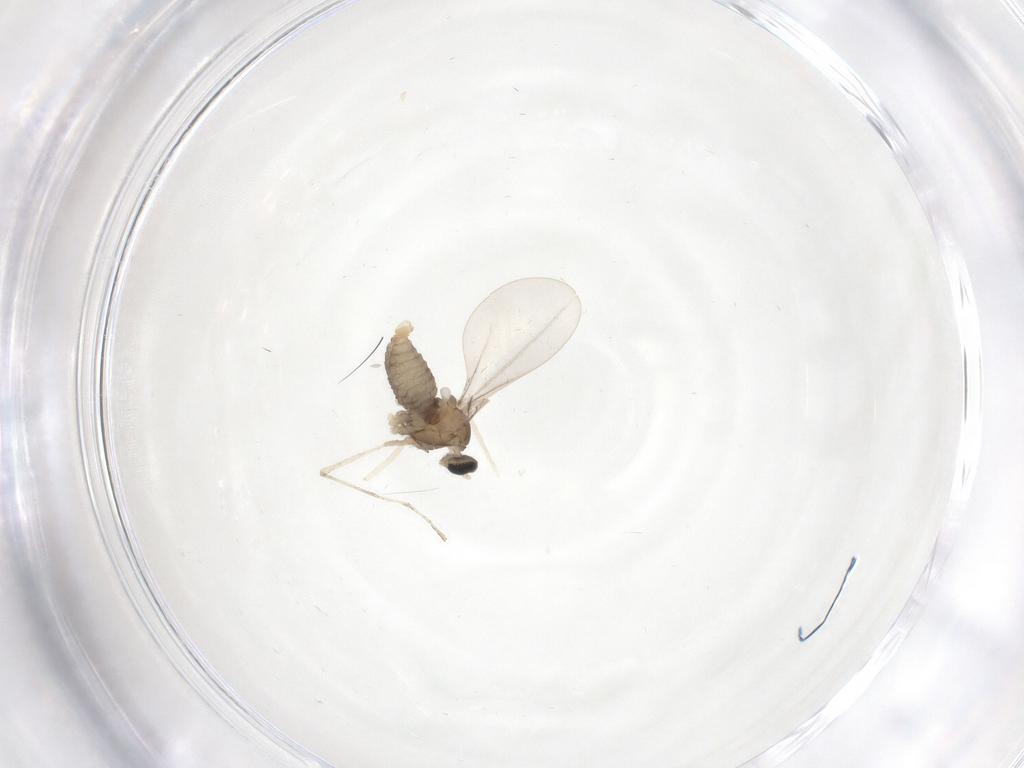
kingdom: Animalia
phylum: Arthropoda
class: Insecta
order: Diptera
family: Cecidomyiidae
